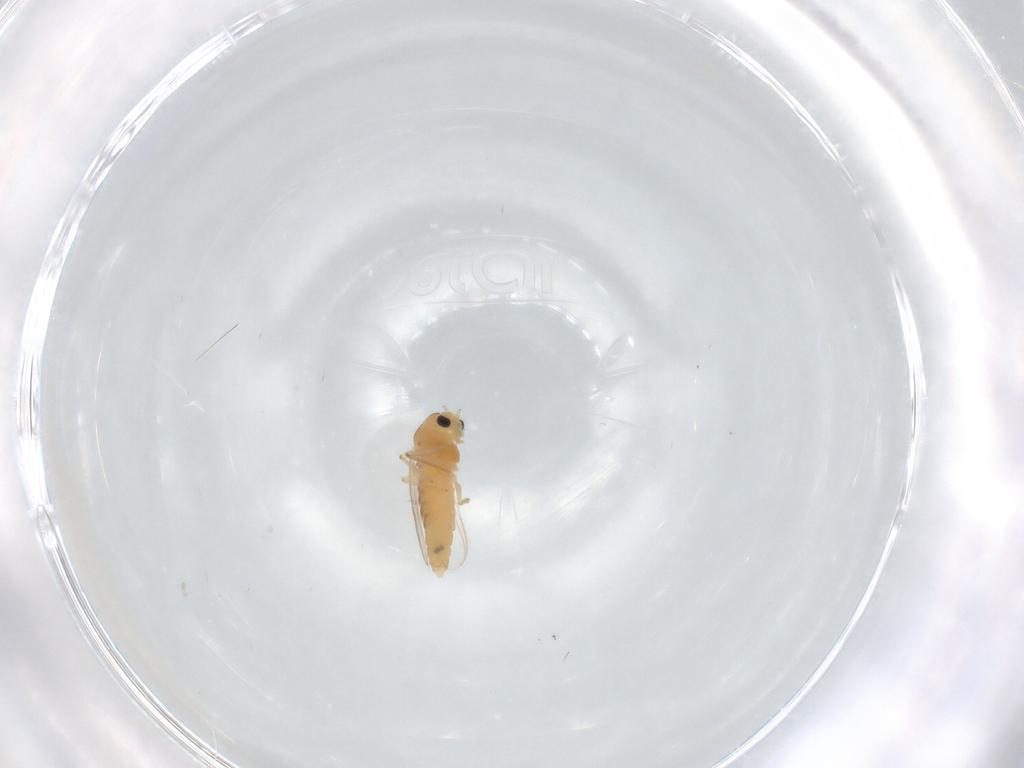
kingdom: Animalia
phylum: Arthropoda
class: Insecta
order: Diptera
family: Chironomidae
